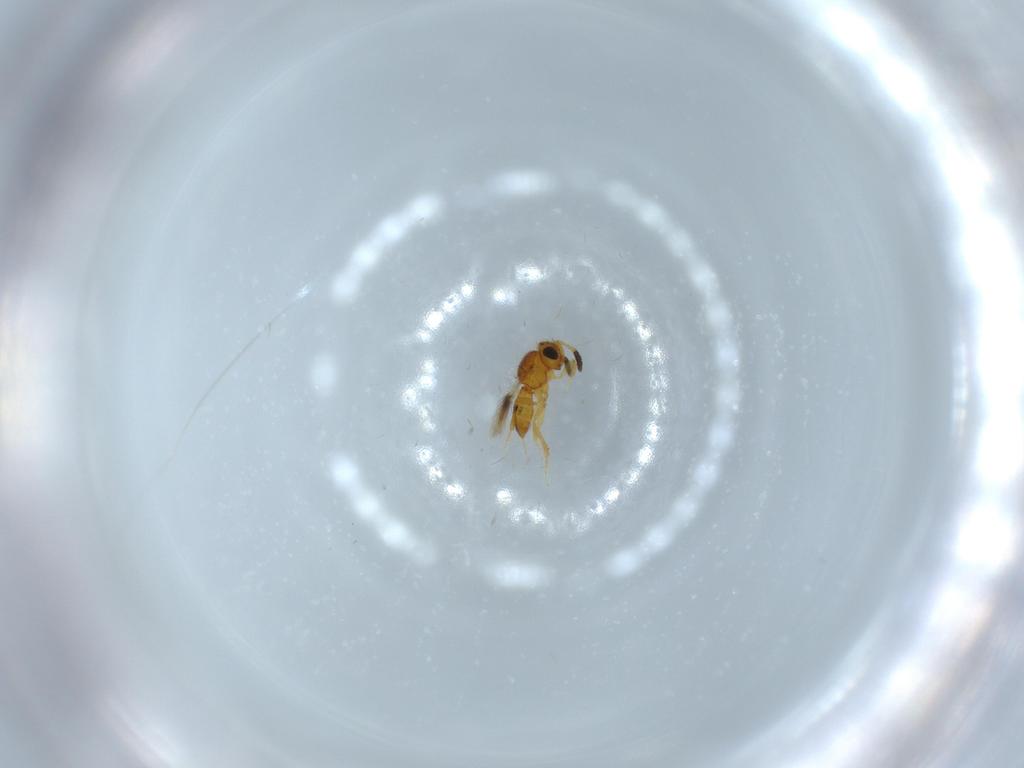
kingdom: Animalia
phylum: Arthropoda
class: Insecta
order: Hymenoptera
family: Scelionidae
